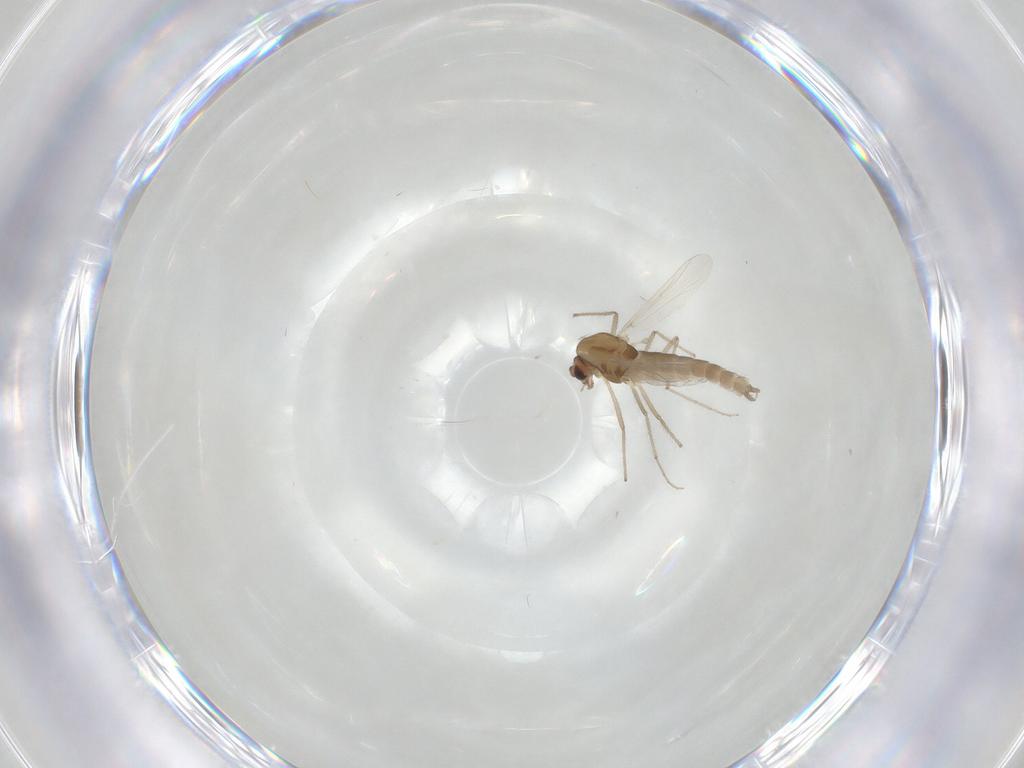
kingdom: Animalia
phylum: Arthropoda
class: Insecta
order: Diptera
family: Chironomidae
